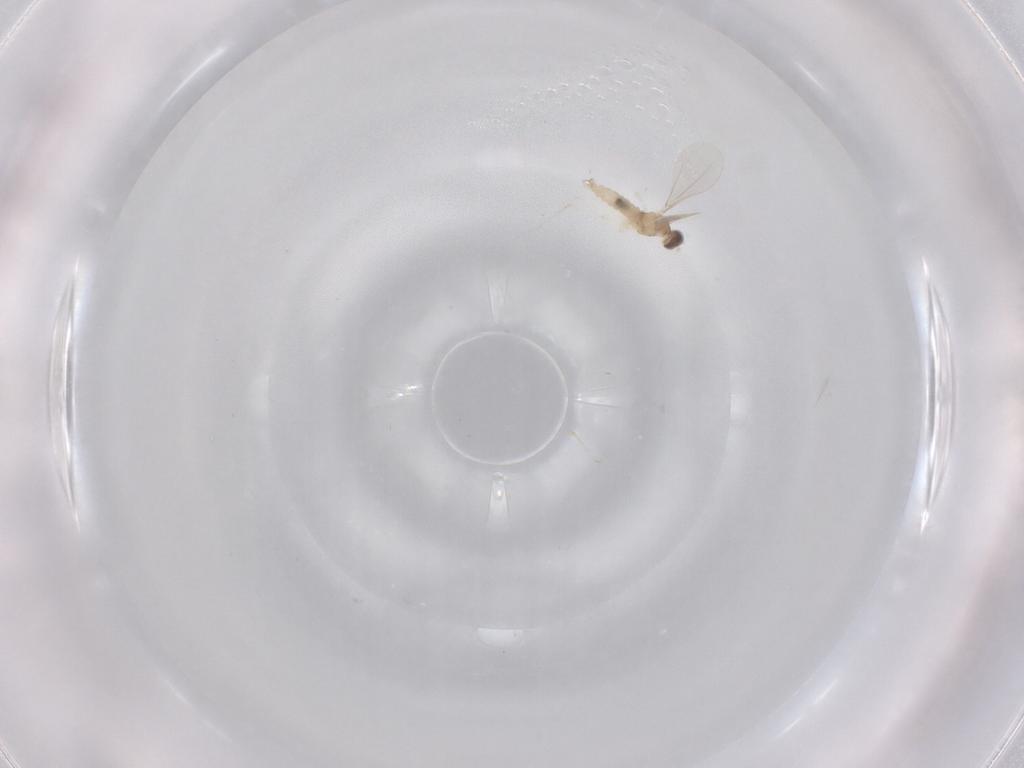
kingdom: Animalia
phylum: Arthropoda
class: Insecta
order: Diptera
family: Cecidomyiidae
